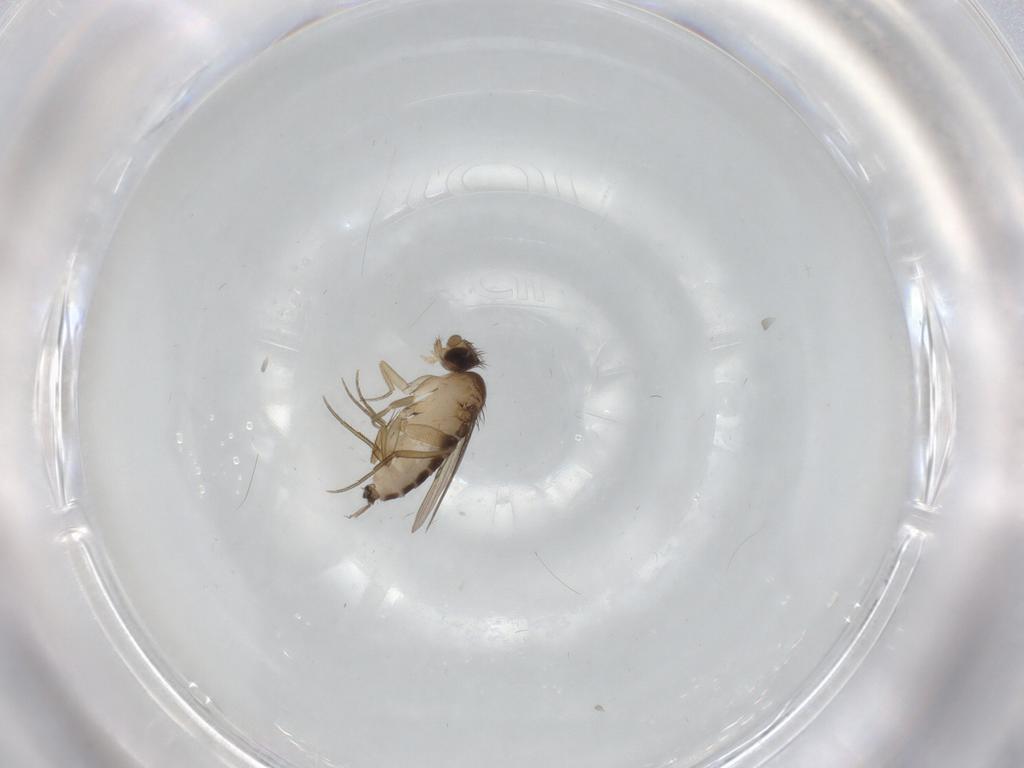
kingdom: Animalia
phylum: Arthropoda
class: Insecta
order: Diptera
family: Phoridae
